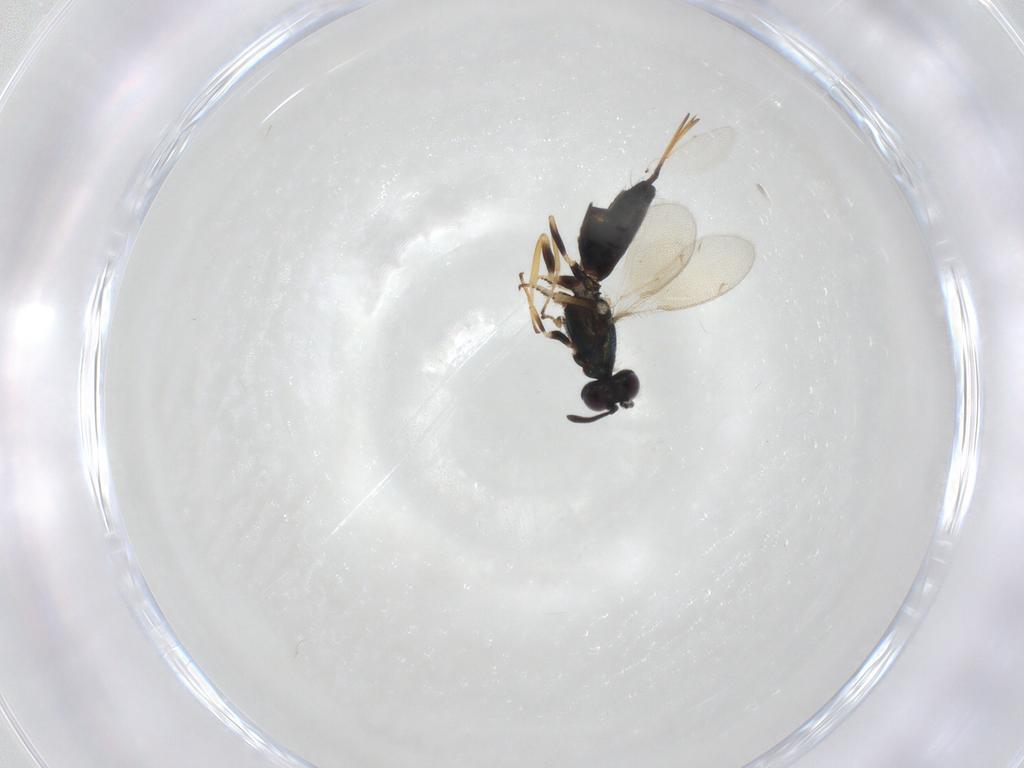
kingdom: Animalia
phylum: Arthropoda
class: Insecta
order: Hymenoptera
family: Eupelmidae
